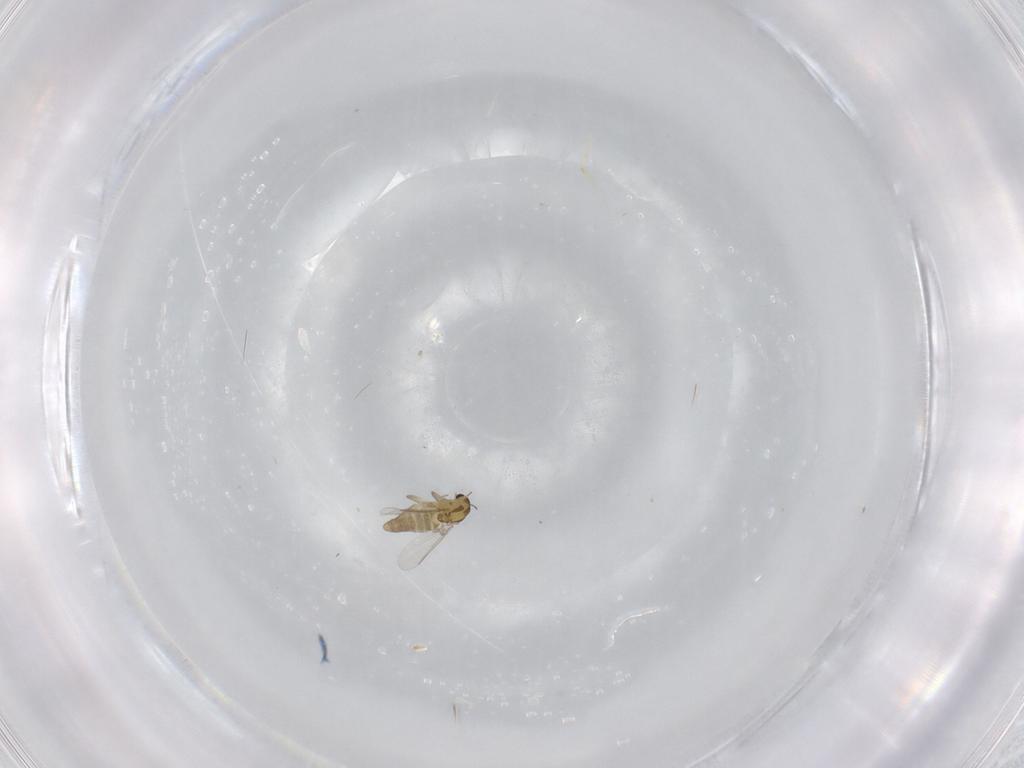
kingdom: Animalia
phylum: Arthropoda
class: Insecta
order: Diptera
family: Chironomidae
